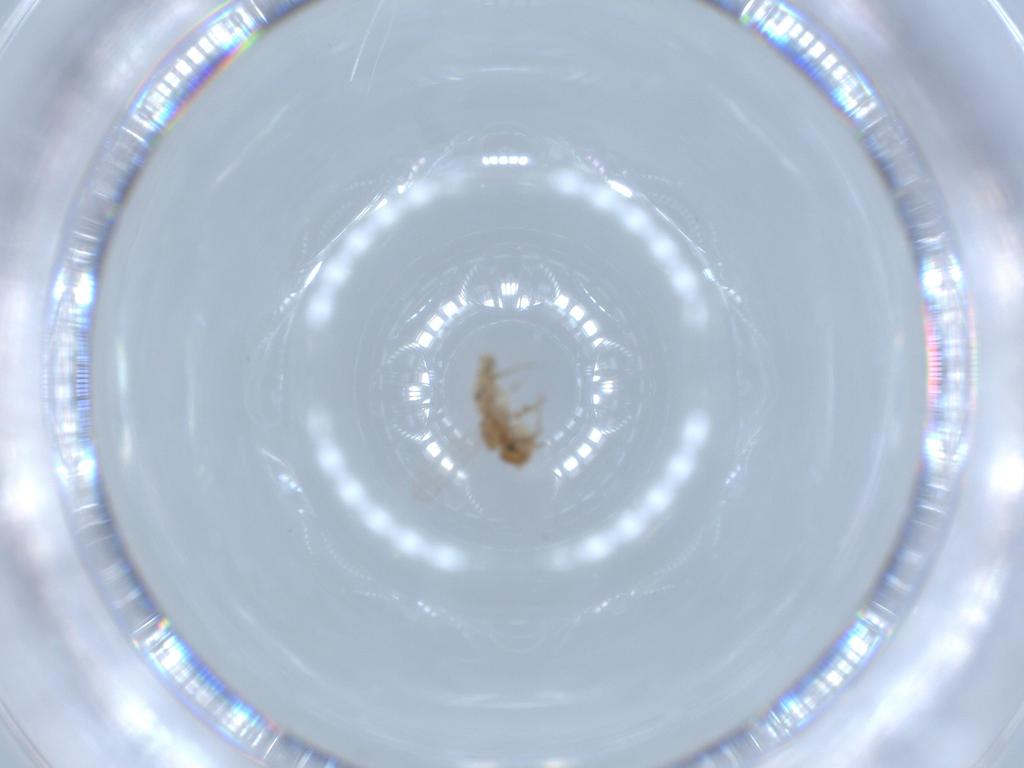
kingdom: Animalia
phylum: Arthropoda
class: Insecta
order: Psocodea
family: Ectopsocidae
